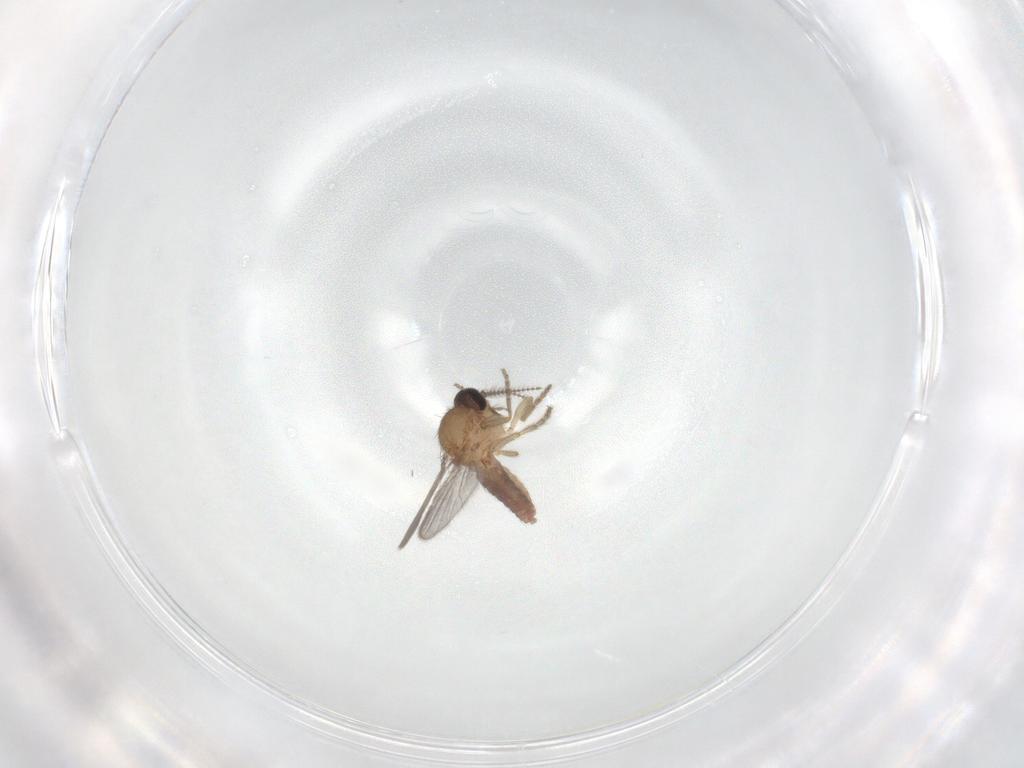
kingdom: Animalia
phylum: Arthropoda
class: Insecta
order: Diptera
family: Ceratopogonidae
